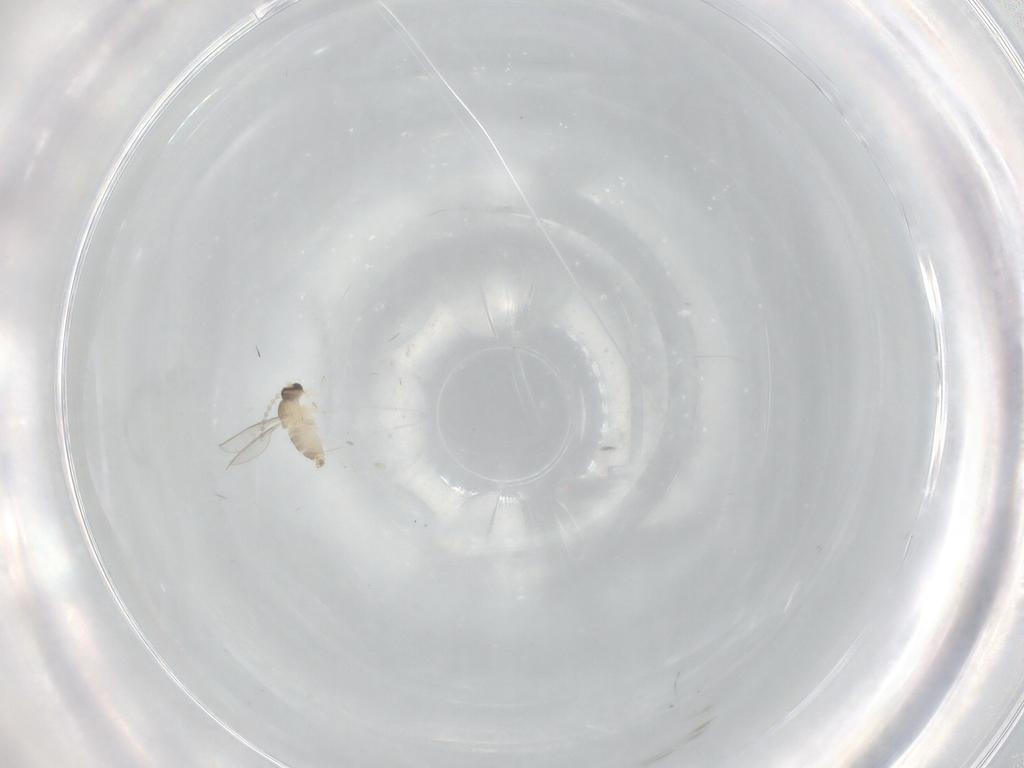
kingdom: Animalia
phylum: Arthropoda
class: Insecta
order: Diptera
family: Cecidomyiidae
